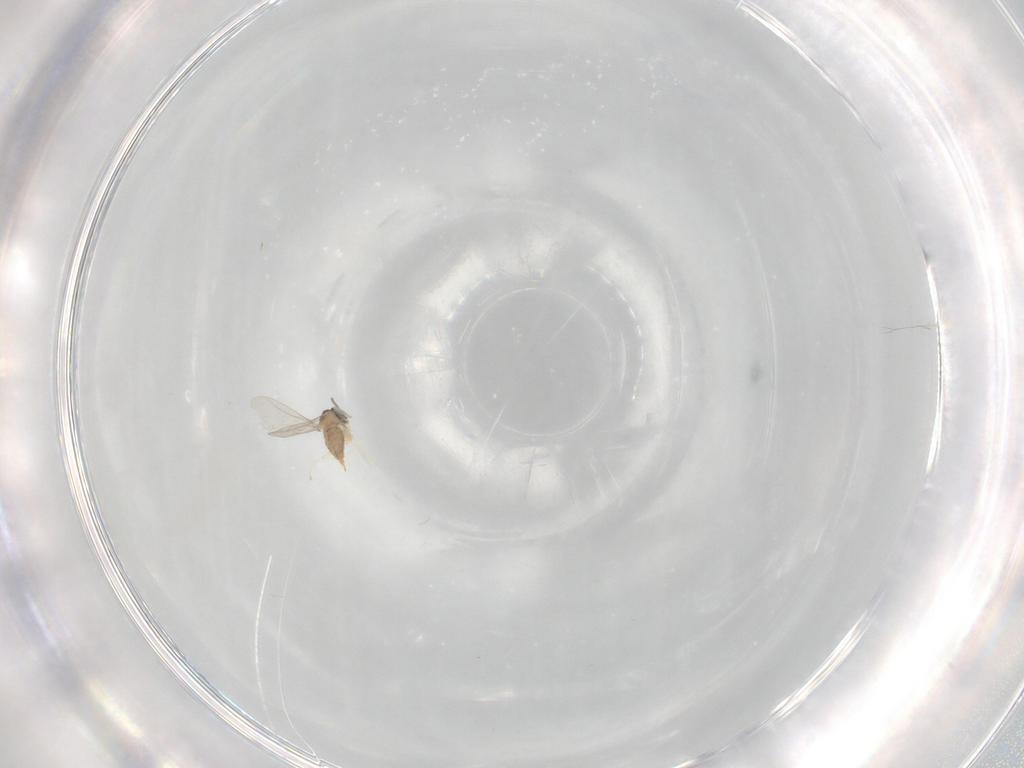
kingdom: Animalia
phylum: Arthropoda
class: Insecta
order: Diptera
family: Cecidomyiidae
